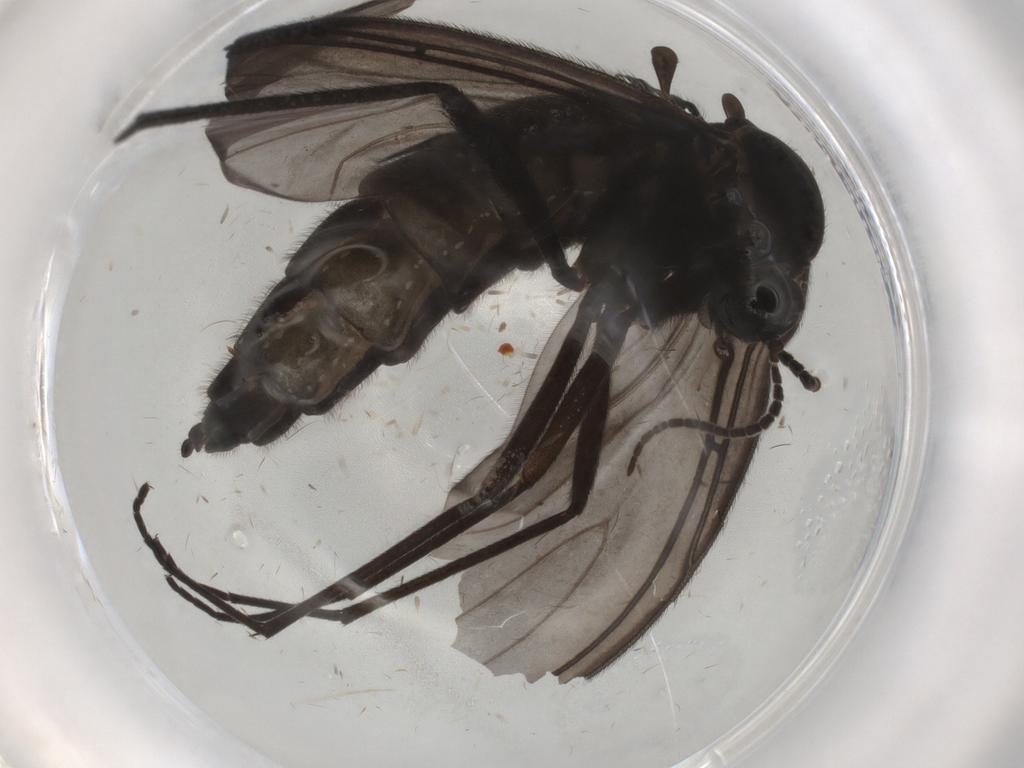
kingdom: Animalia
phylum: Arthropoda
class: Insecta
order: Diptera
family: Sciaridae
